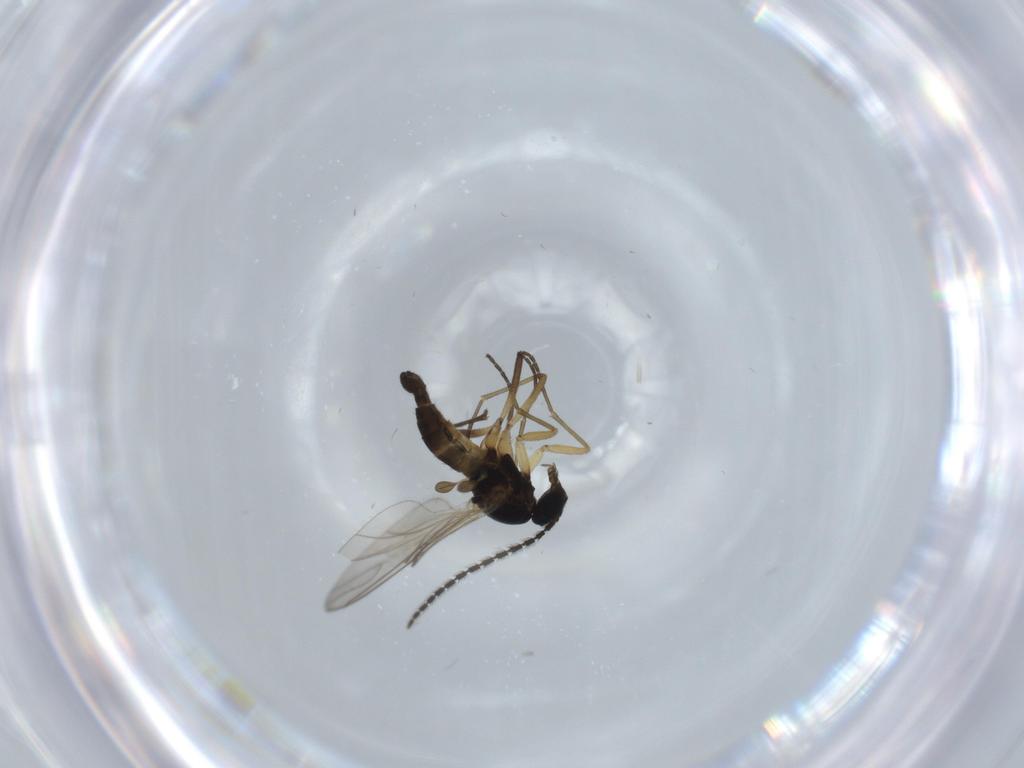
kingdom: Animalia
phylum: Arthropoda
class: Insecta
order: Diptera
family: Sciaridae
